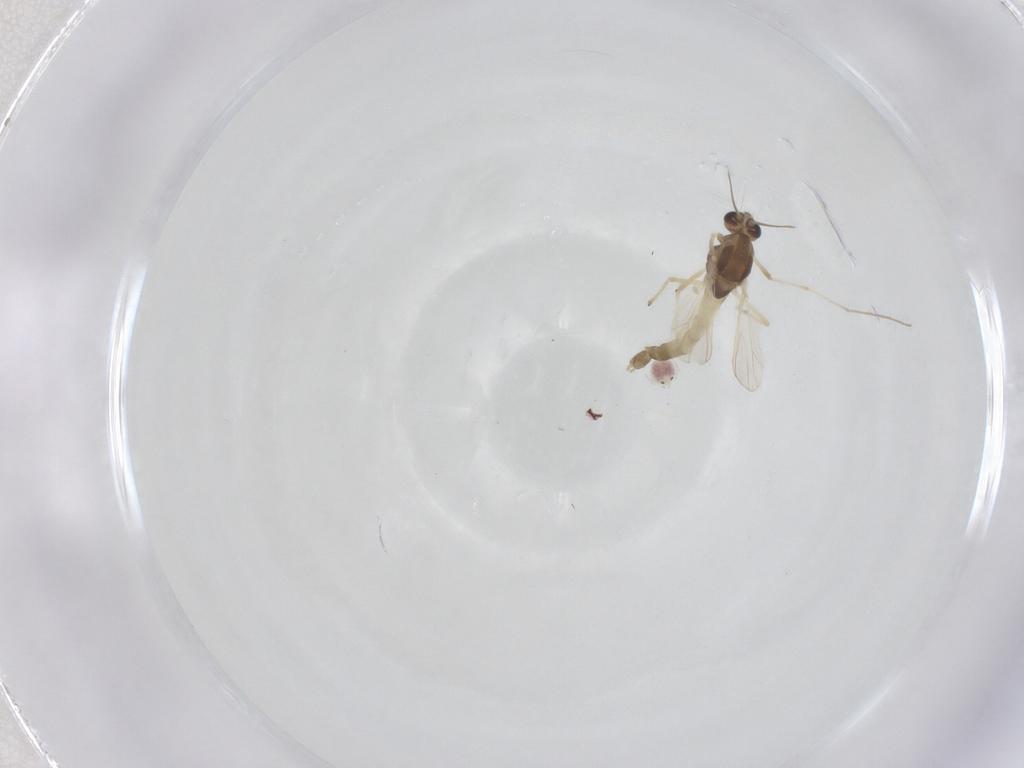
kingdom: Animalia
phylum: Arthropoda
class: Insecta
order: Diptera
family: Chironomidae
